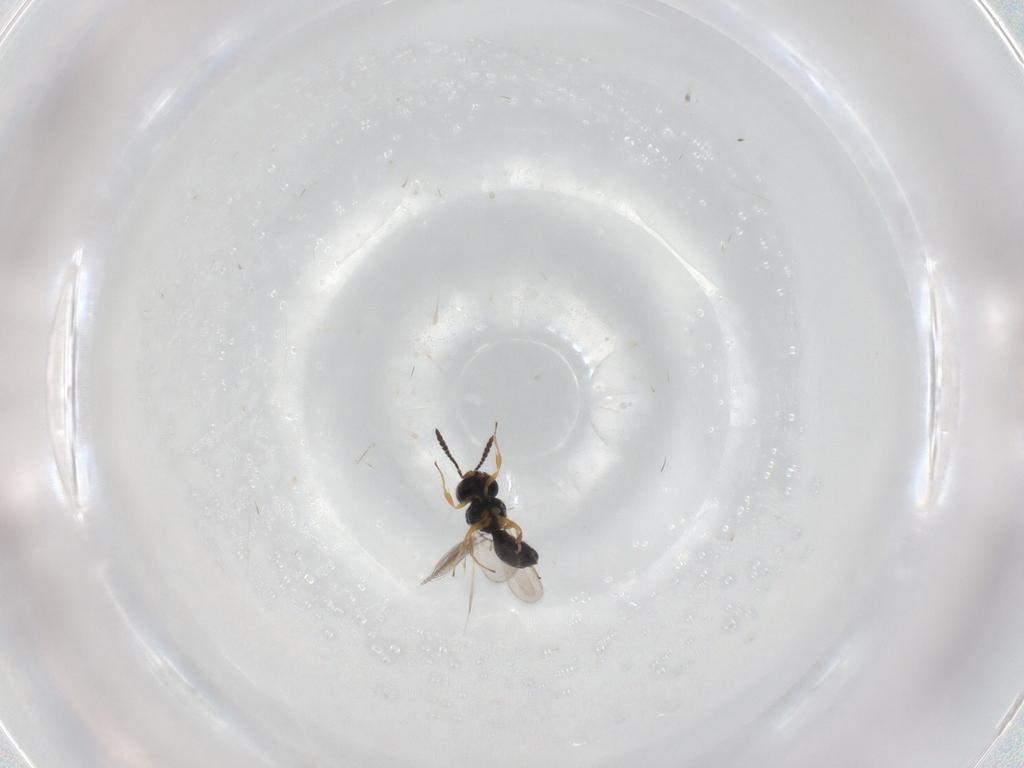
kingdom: Animalia
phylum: Arthropoda
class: Insecta
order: Hymenoptera
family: Scelionidae
